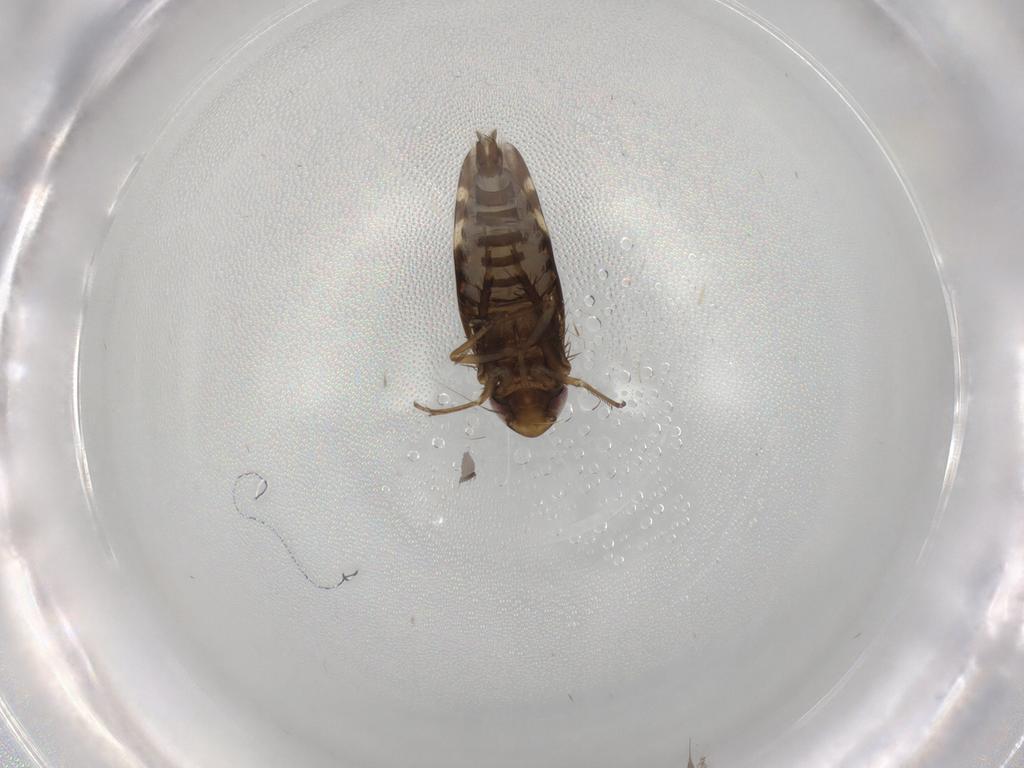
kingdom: Animalia
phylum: Arthropoda
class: Insecta
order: Hemiptera
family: Cicadellidae
